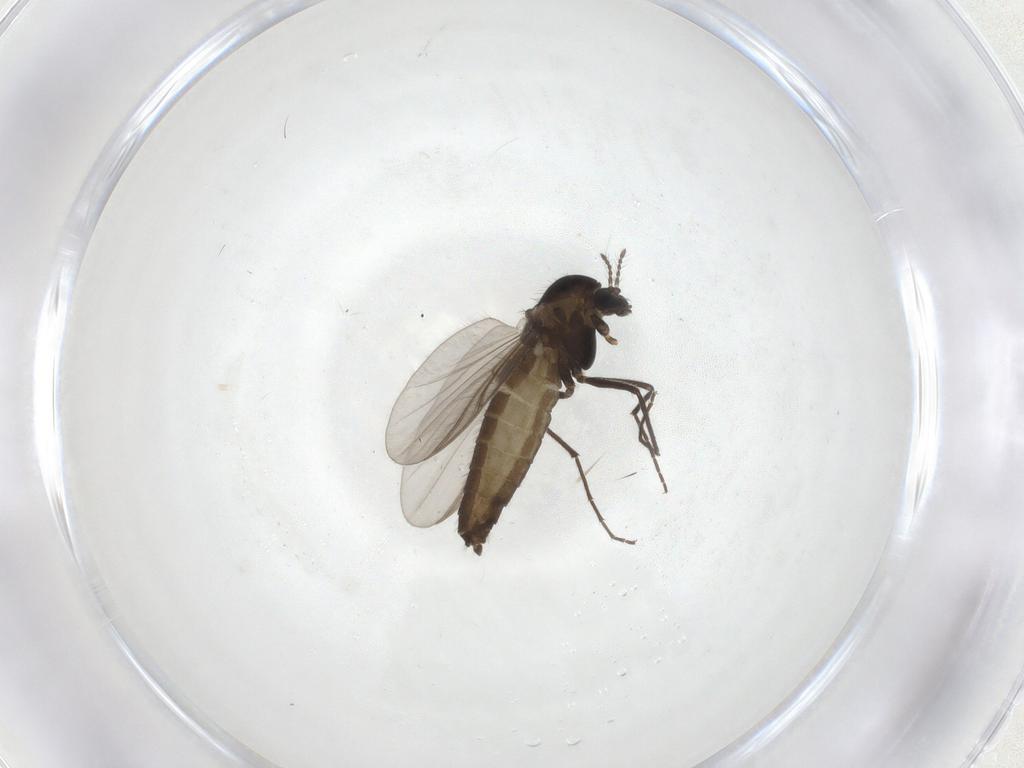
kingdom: Animalia
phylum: Arthropoda
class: Insecta
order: Diptera
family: Chironomidae
